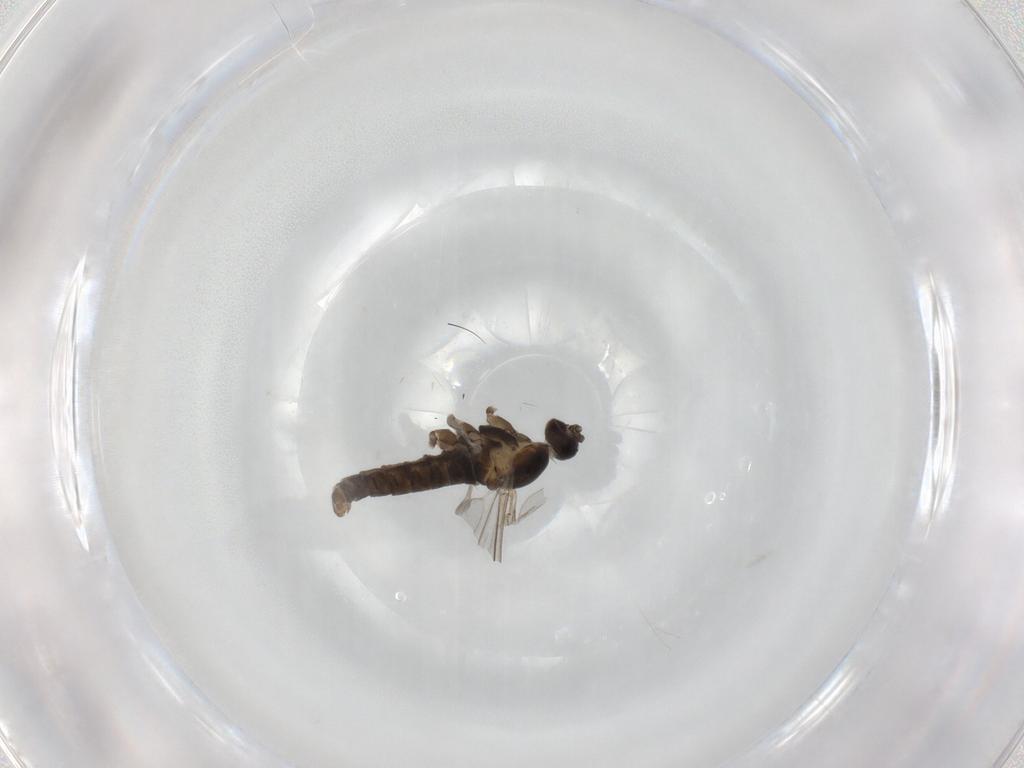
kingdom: Animalia
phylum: Arthropoda
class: Insecta
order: Diptera
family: Cecidomyiidae
